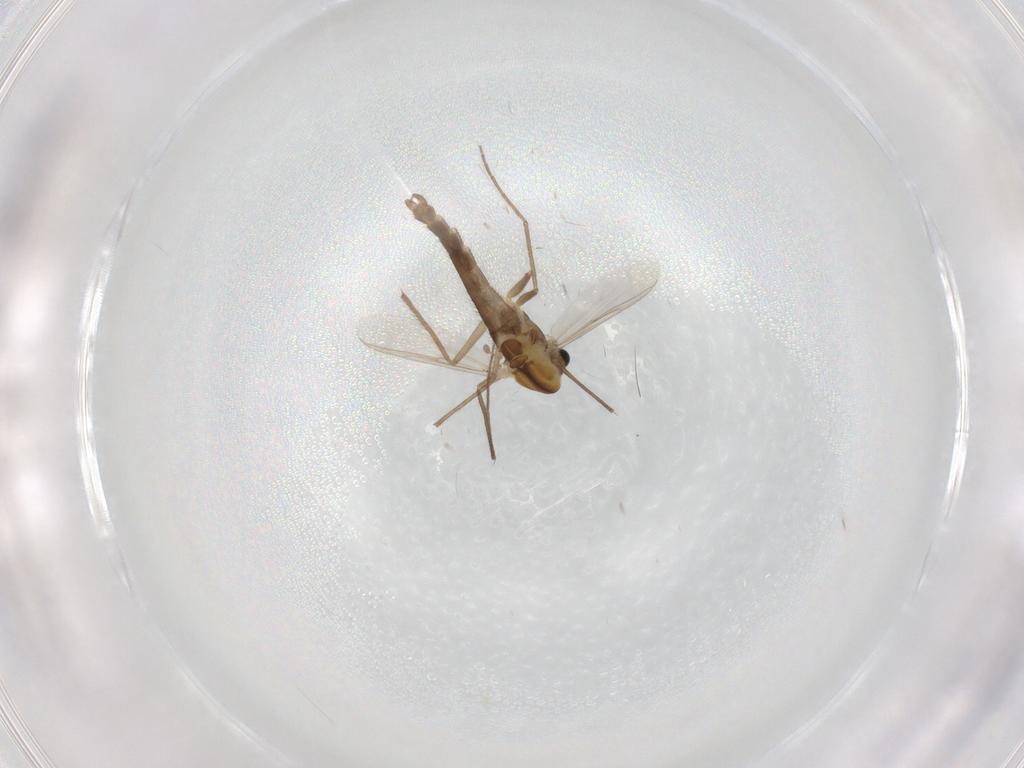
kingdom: Animalia
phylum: Arthropoda
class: Insecta
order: Diptera
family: Chironomidae
